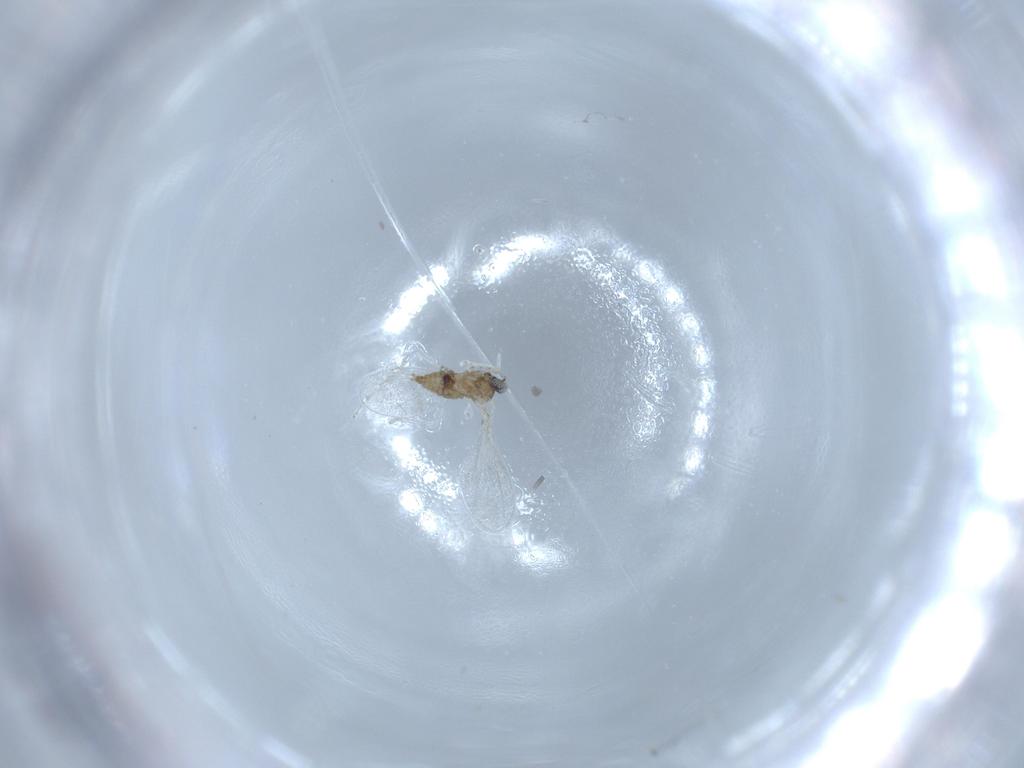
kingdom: Animalia
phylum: Arthropoda
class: Insecta
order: Diptera
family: Cecidomyiidae
